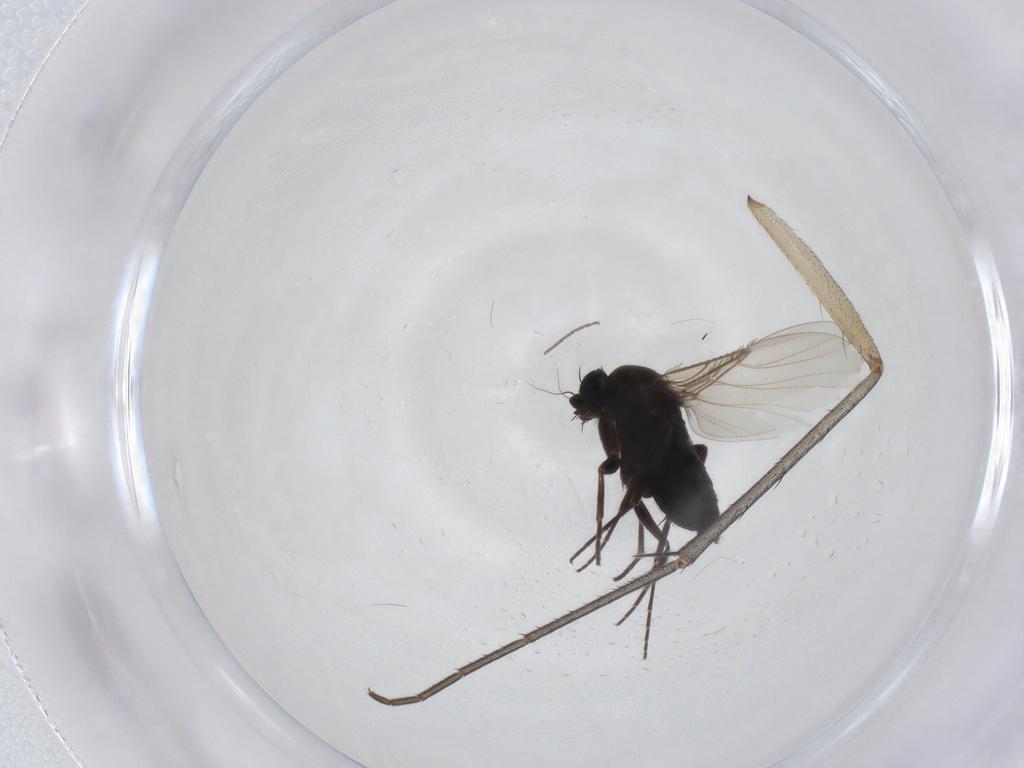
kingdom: Animalia
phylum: Arthropoda
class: Insecta
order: Diptera
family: Phoridae
